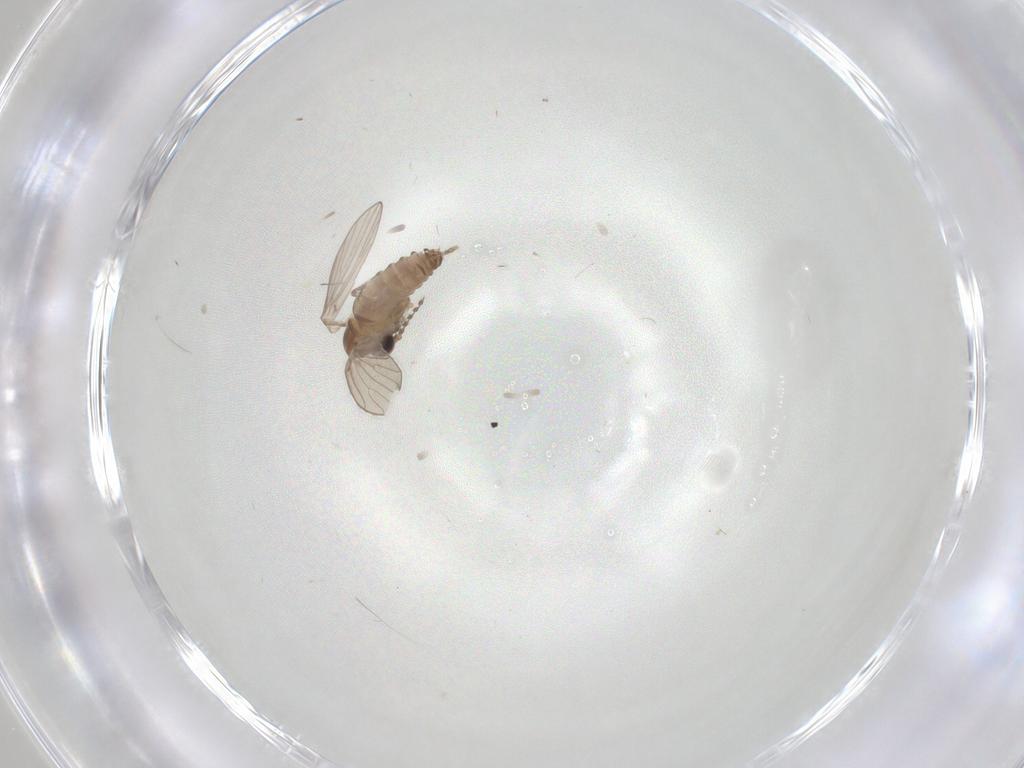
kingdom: Animalia
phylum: Arthropoda
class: Insecta
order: Diptera
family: Psychodidae
